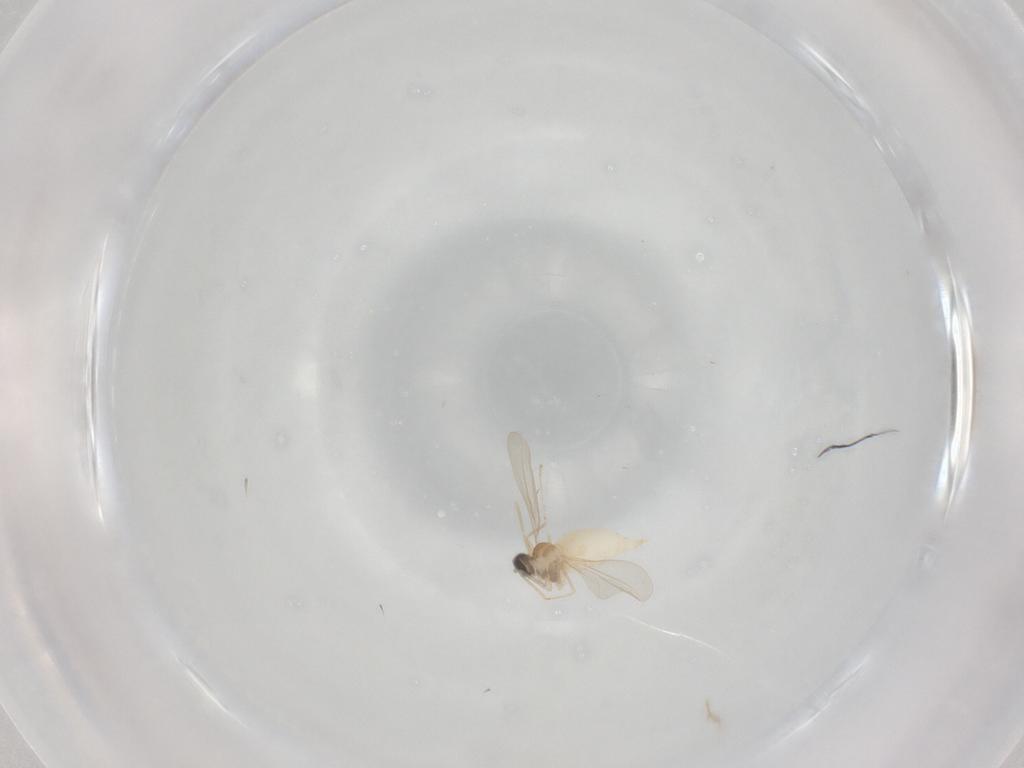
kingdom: Animalia
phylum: Arthropoda
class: Insecta
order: Diptera
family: Cecidomyiidae
